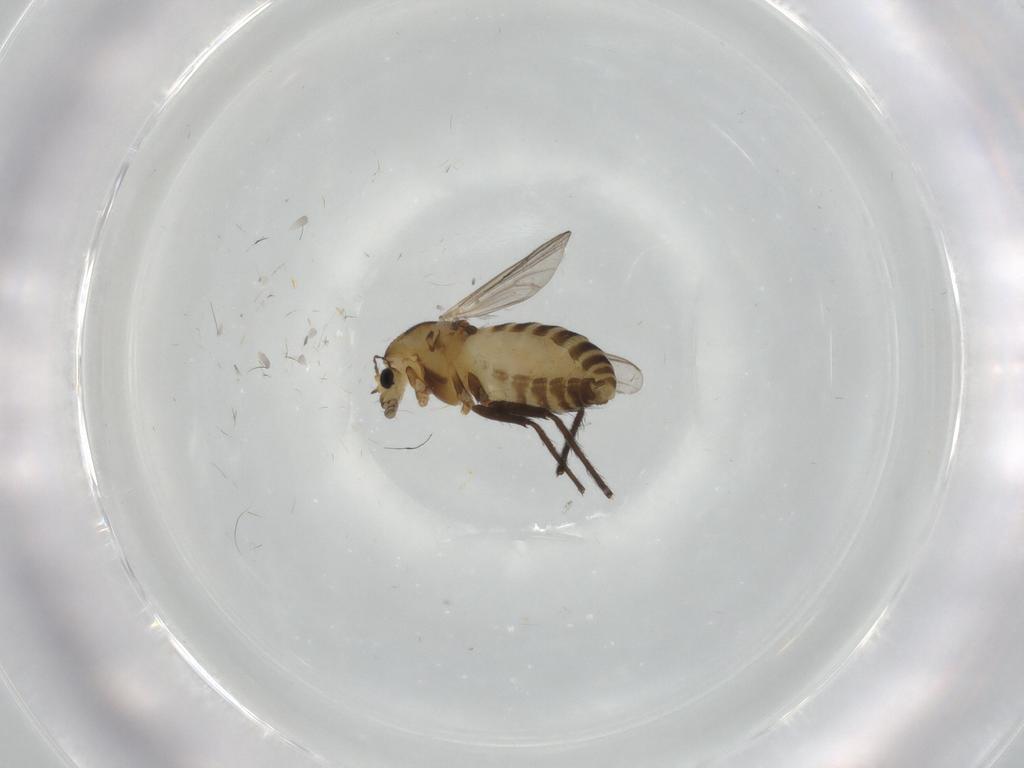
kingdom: Animalia
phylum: Arthropoda
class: Insecta
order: Diptera
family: Chironomidae
